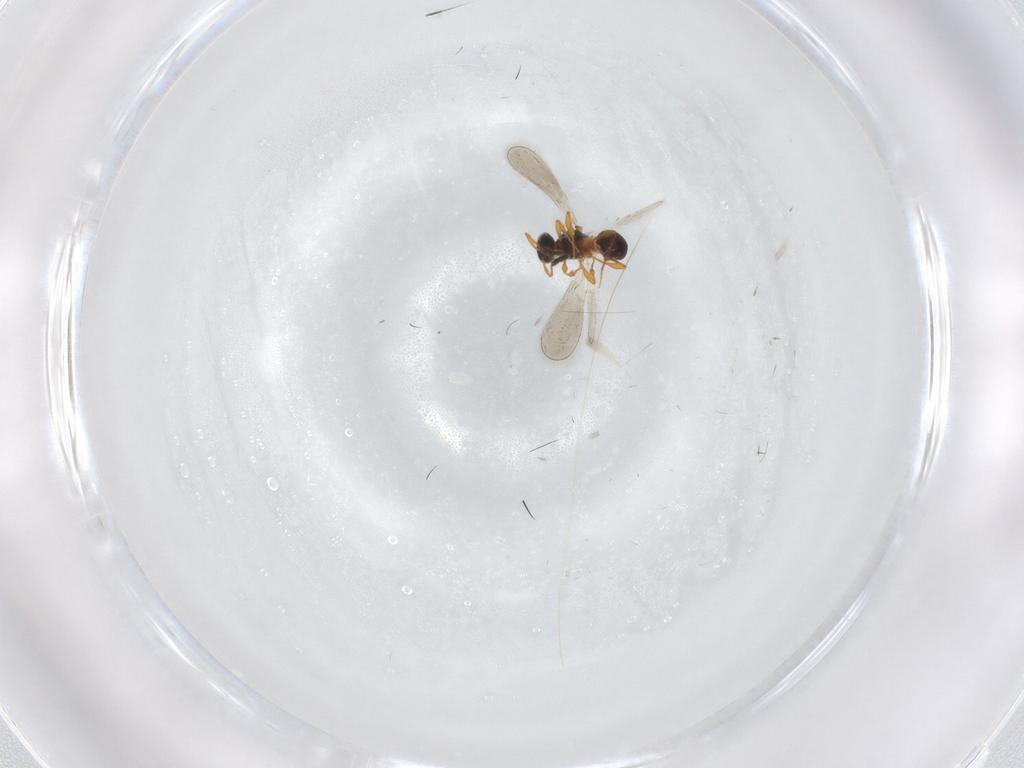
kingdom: Animalia
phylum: Arthropoda
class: Insecta
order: Hymenoptera
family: Platygastridae
